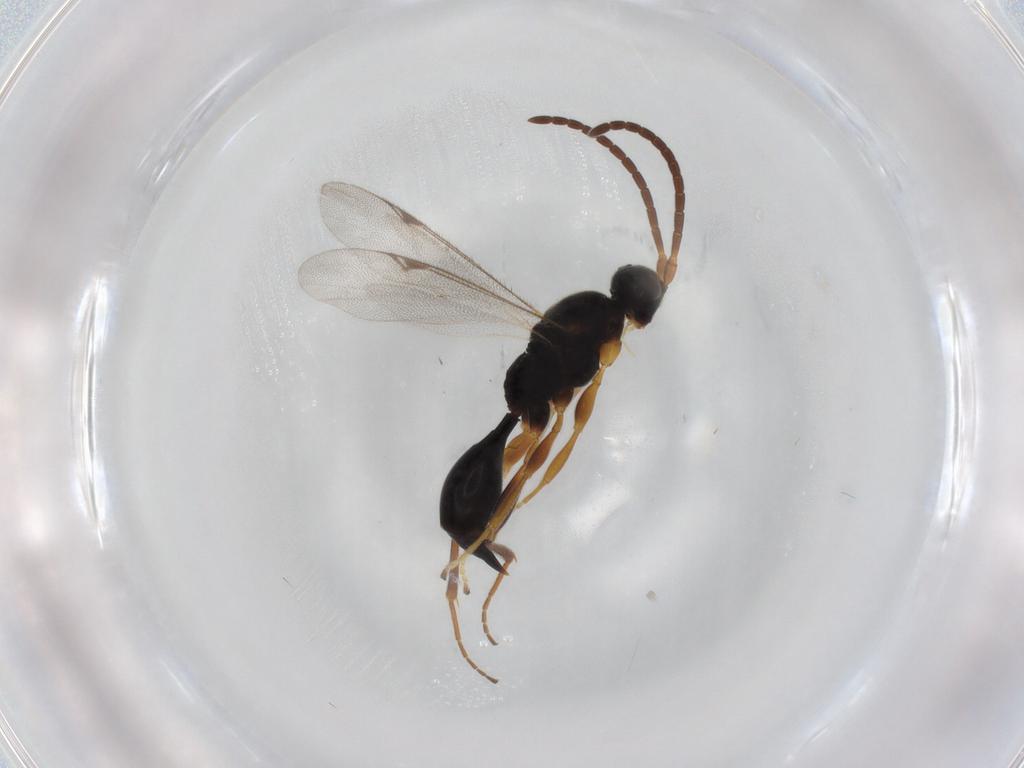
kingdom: Animalia
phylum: Arthropoda
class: Insecta
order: Hymenoptera
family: Braconidae
